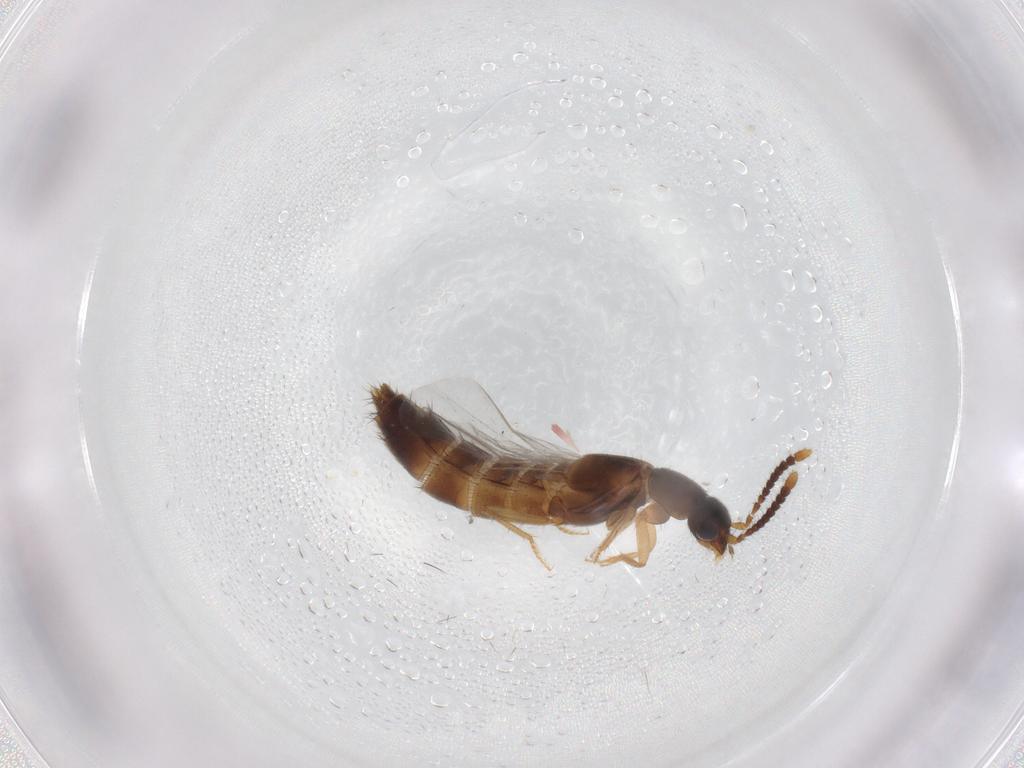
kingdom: Animalia
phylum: Arthropoda
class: Insecta
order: Coleoptera
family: Staphylinidae
